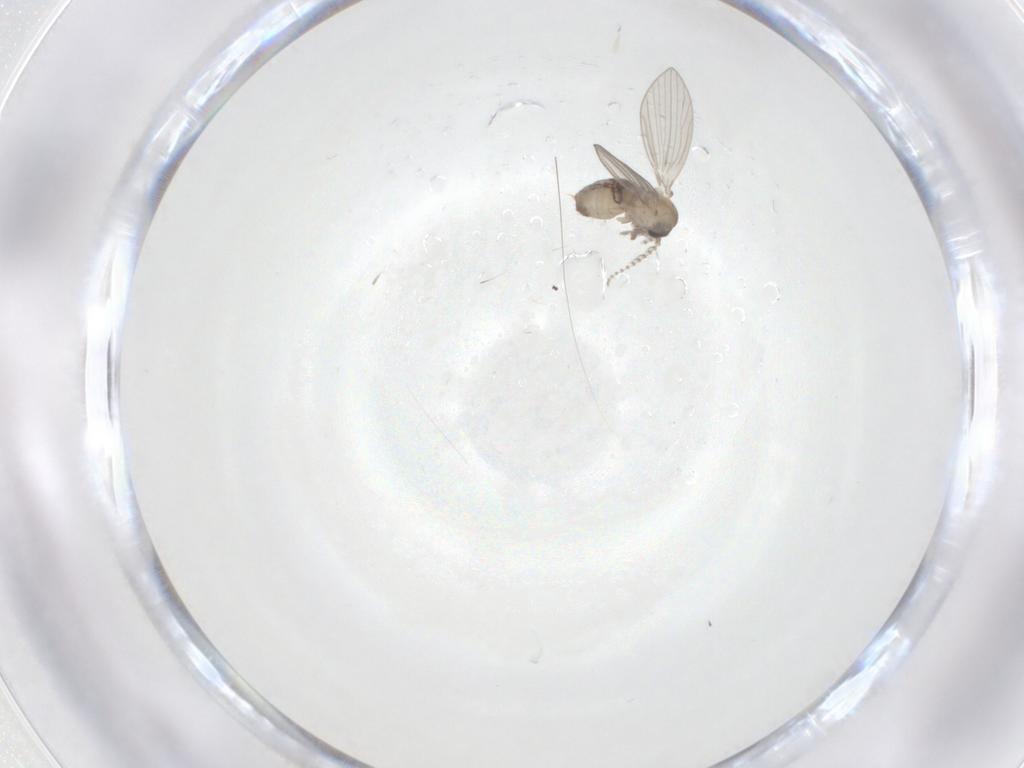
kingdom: Animalia
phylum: Arthropoda
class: Insecta
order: Diptera
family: Psychodidae
